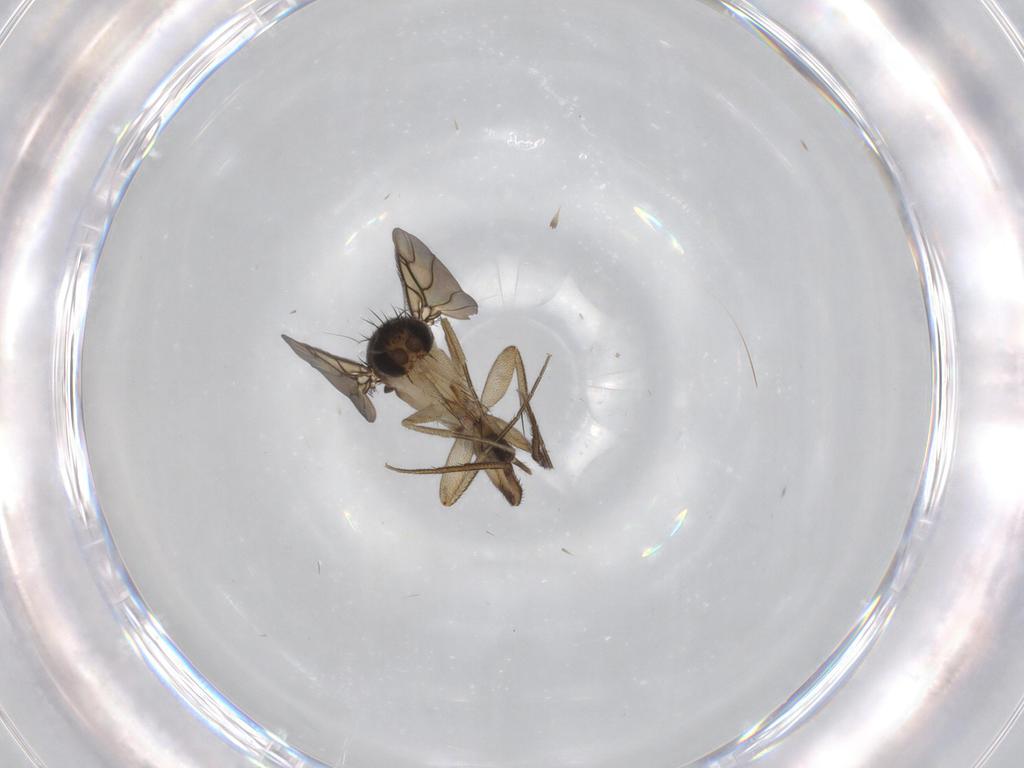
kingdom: Animalia
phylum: Arthropoda
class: Insecta
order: Diptera
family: Phoridae
